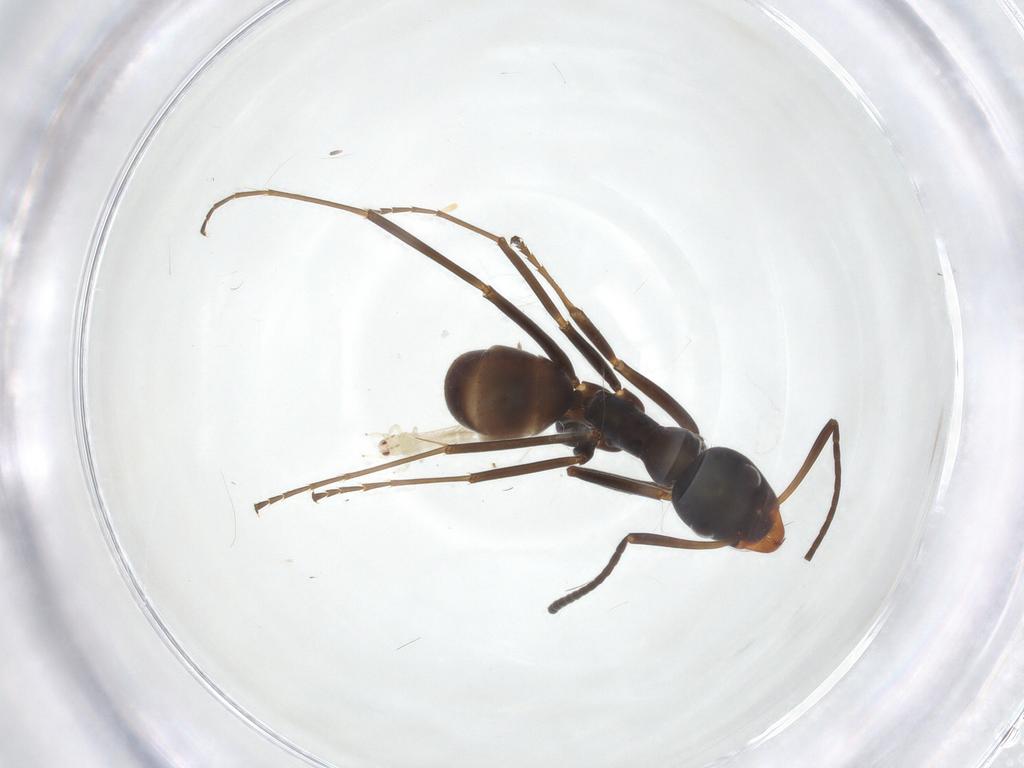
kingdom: Animalia
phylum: Arthropoda
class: Insecta
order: Hymenoptera
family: Formicidae
